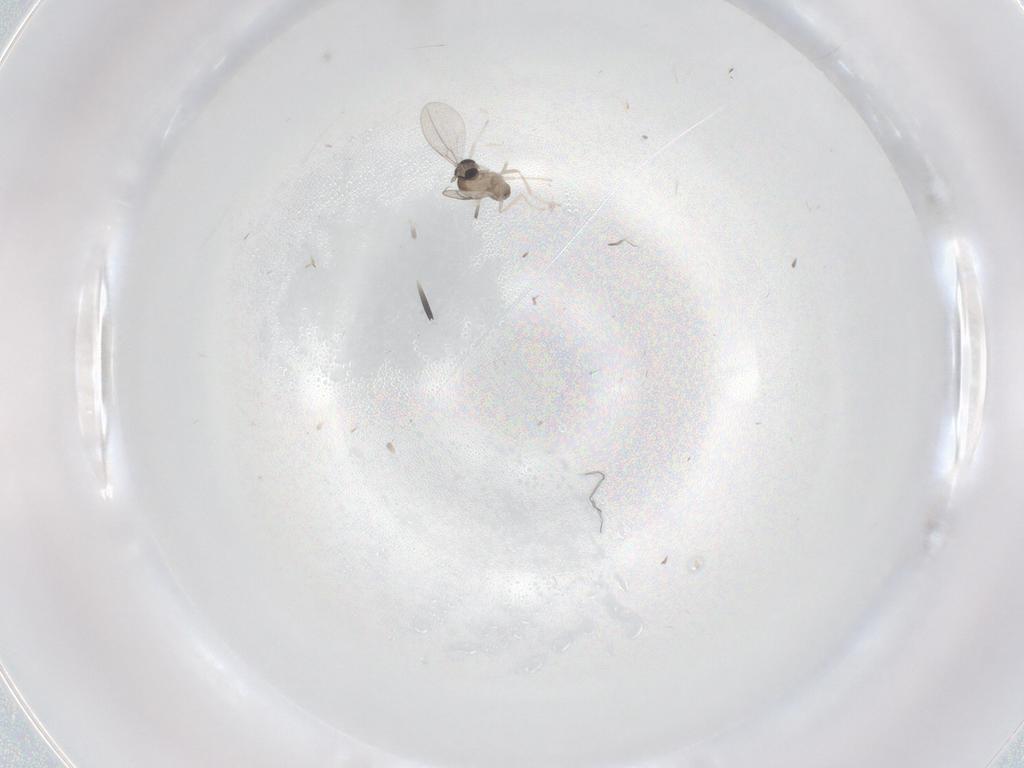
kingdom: Animalia
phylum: Arthropoda
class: Insecta
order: Diptera
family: Cecidomyiidae
